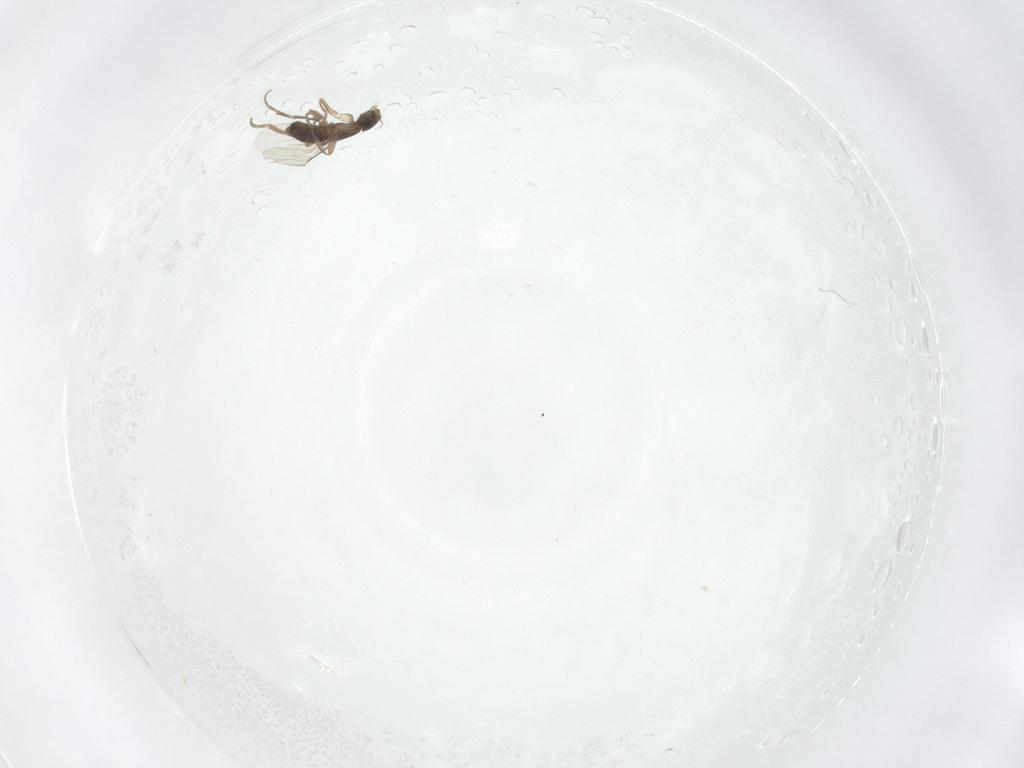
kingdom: Animalia
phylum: Arthropoda
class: Insecta
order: Diptera
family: Phoridae
